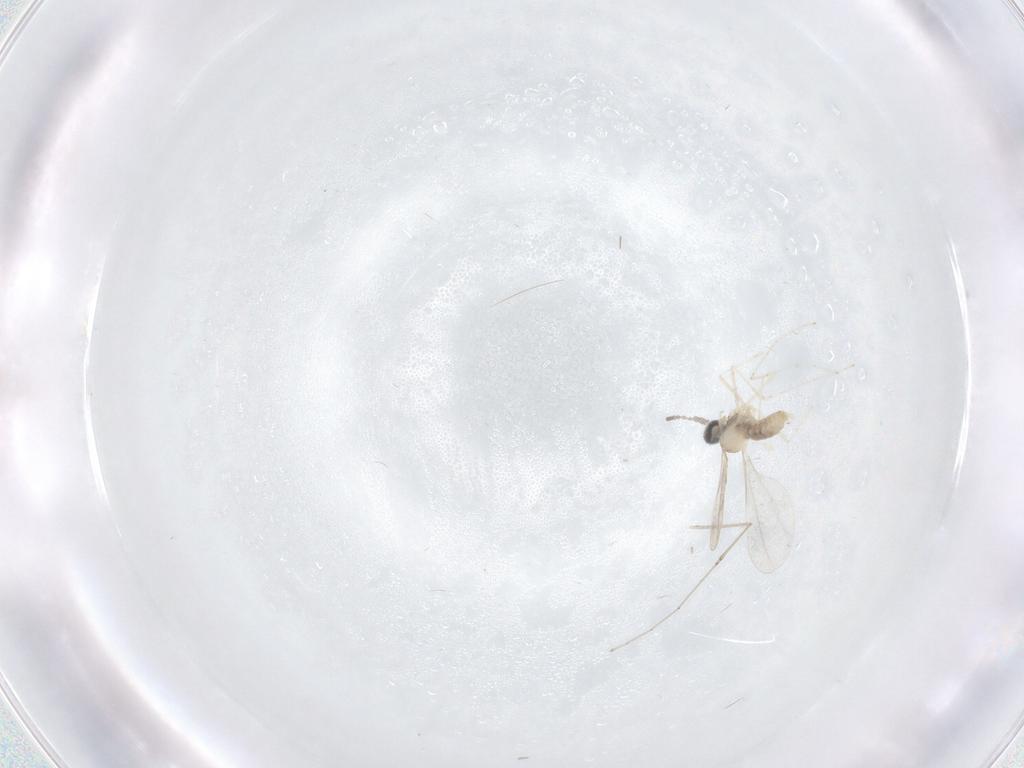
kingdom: Animalia
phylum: Arthropoda
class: Insecta
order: Diptera
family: Cecidomyiidae
